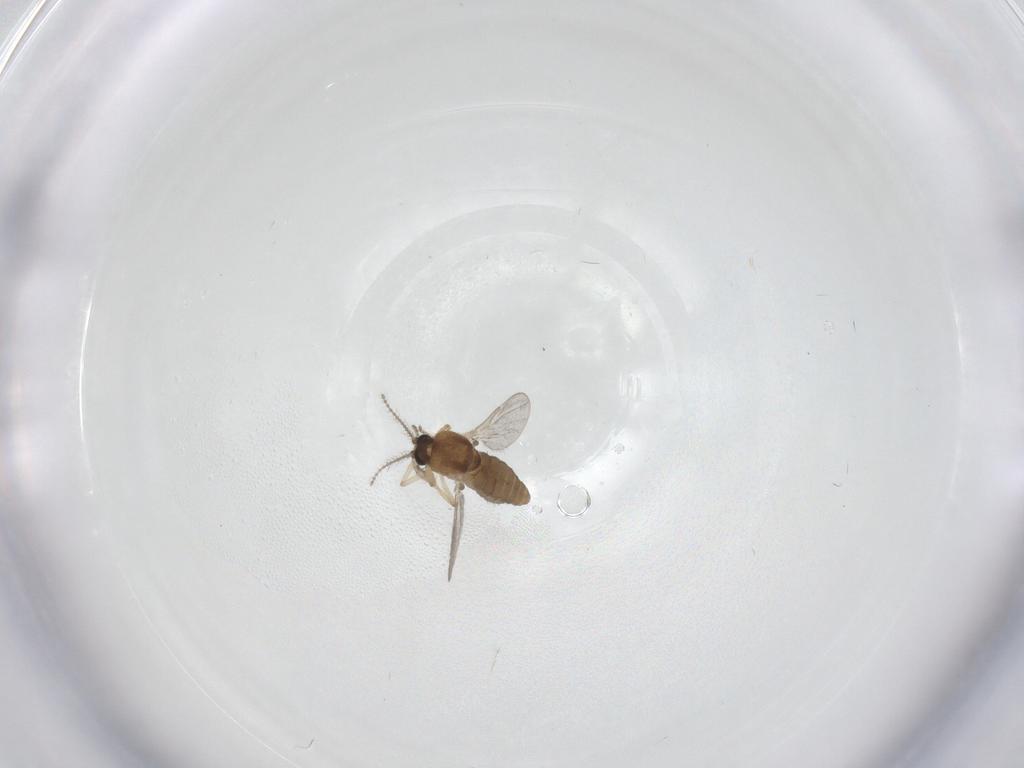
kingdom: Animalia
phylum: Arthropoda
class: Insecta
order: Diptera
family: Ceratopogonidae
